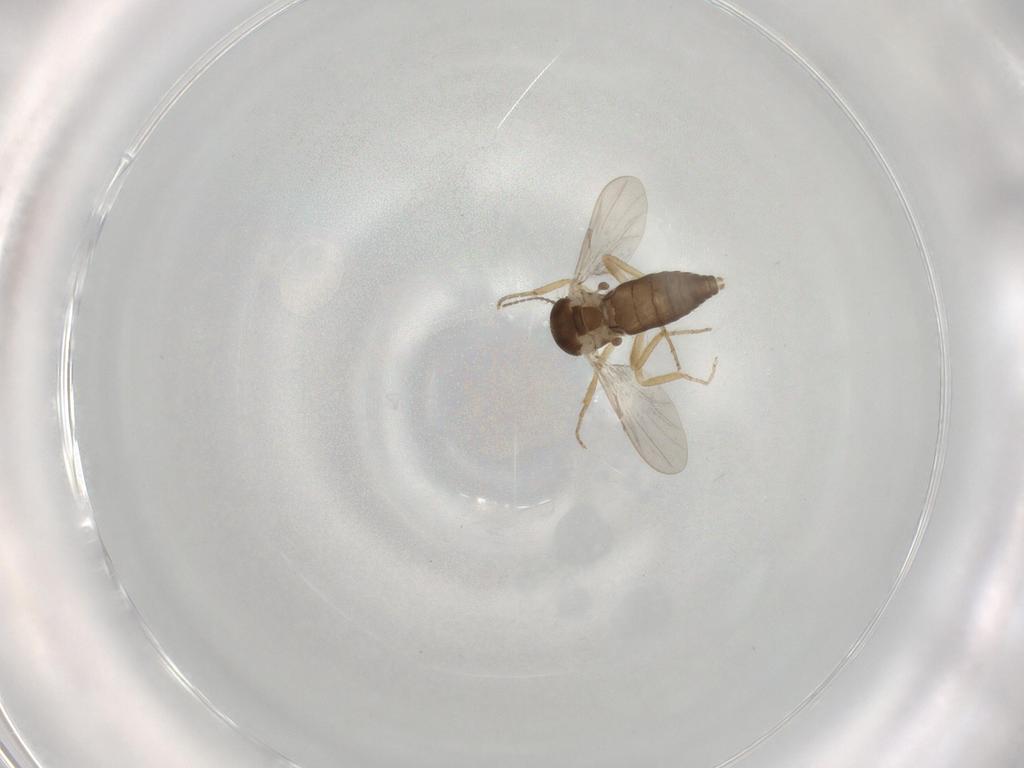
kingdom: Animalia
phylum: Arthropoda
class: Insecta
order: Diptera
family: Ceratopogonidae
